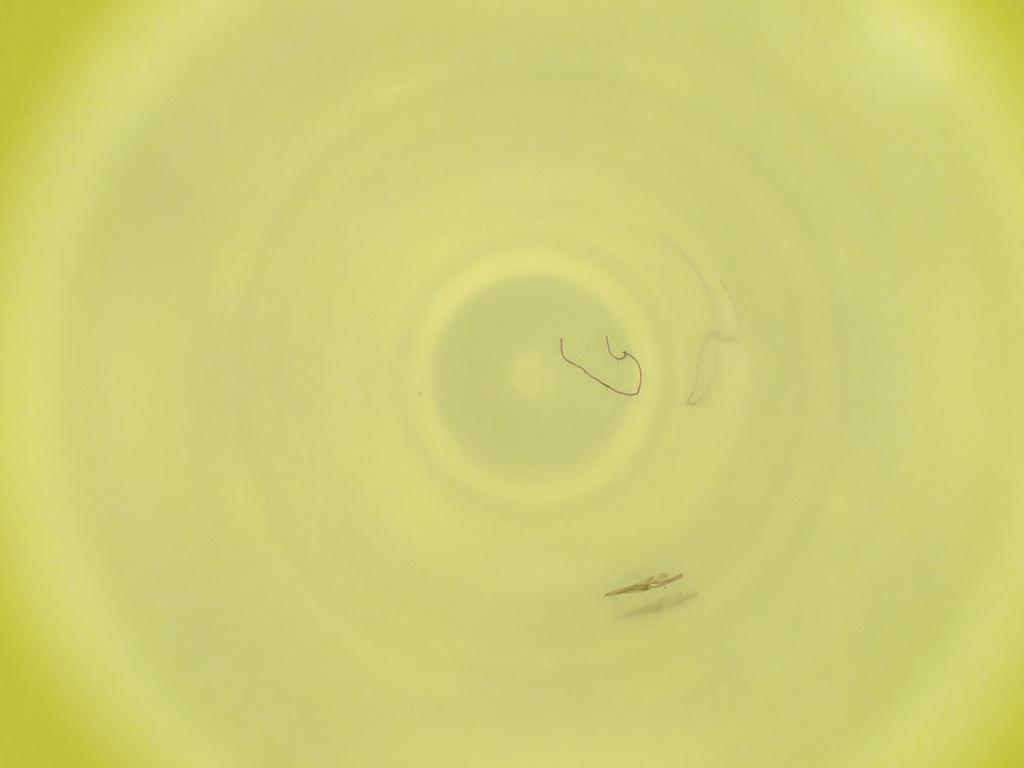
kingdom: Animalia
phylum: Arthropoda
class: Insecta
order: Diptera
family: Cecidomyiidae
